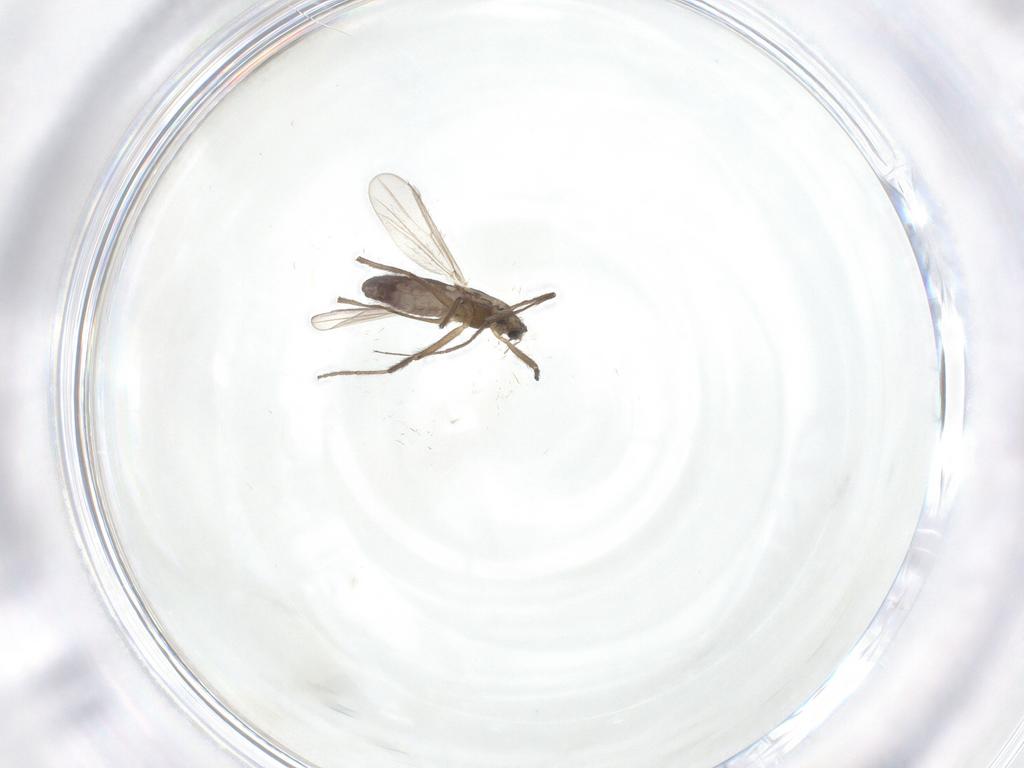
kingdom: Animalia
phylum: Arthropoda
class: Insecta
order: Diptera
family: Chironomidae
